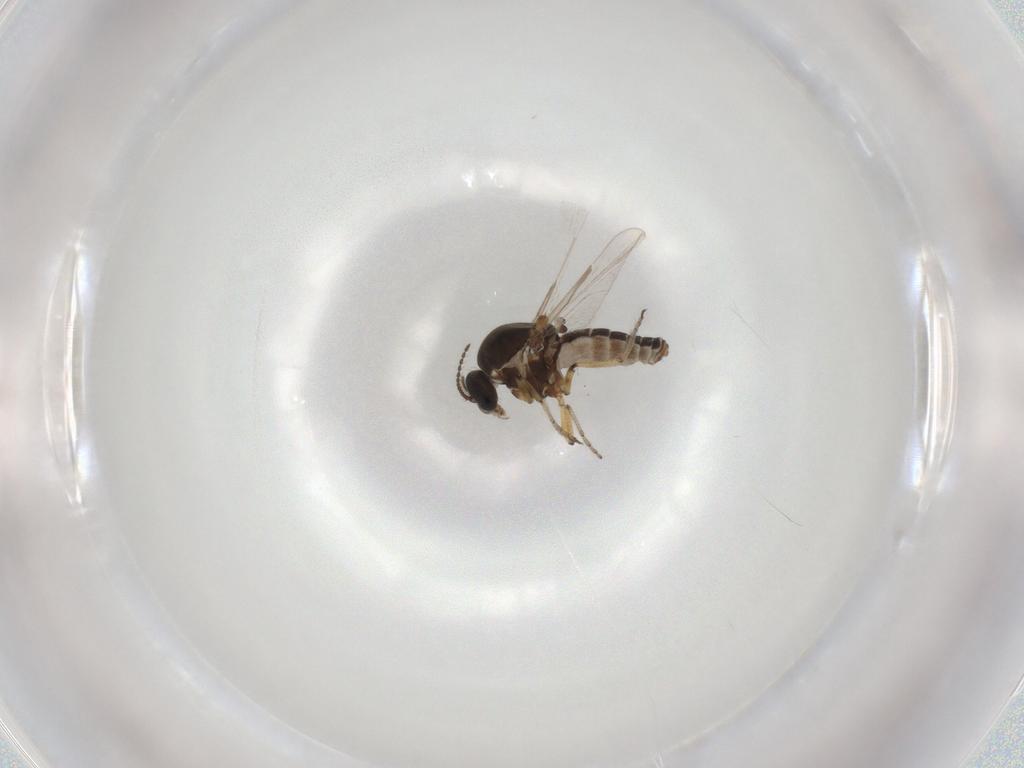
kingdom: Animalia
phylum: Arthropoda
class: Insecta
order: Diptera
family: Ceratopogonidae
